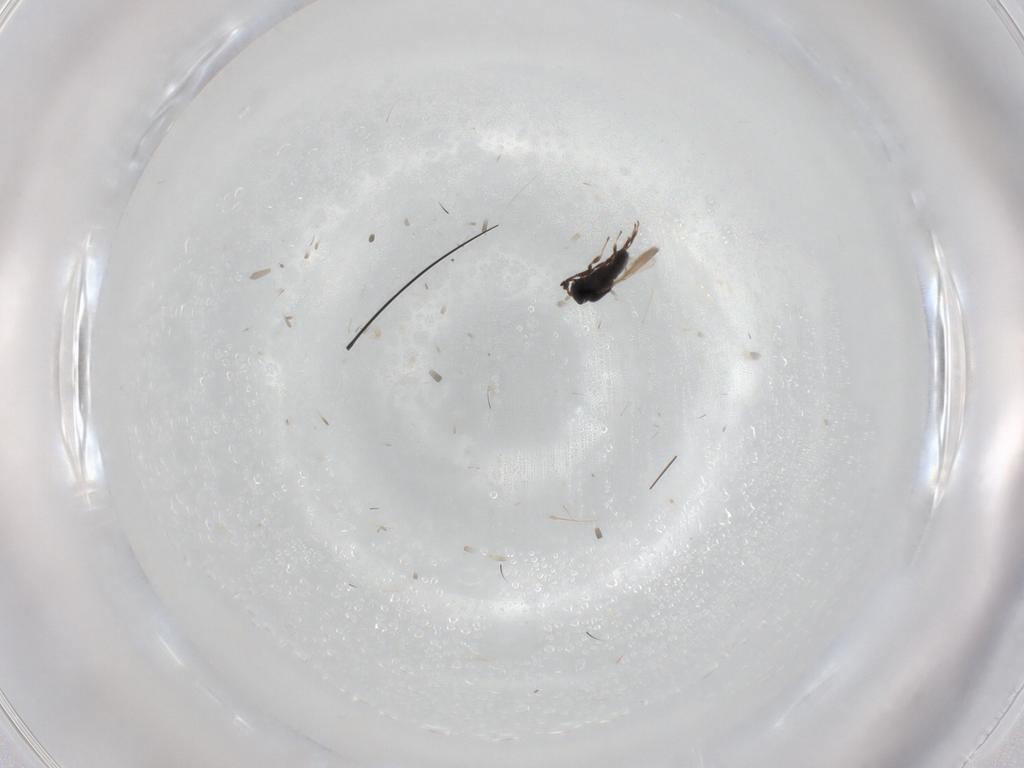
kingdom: Animalia
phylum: Arthropoda
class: Insecta
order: Hymenoptera
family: Scelionidae
